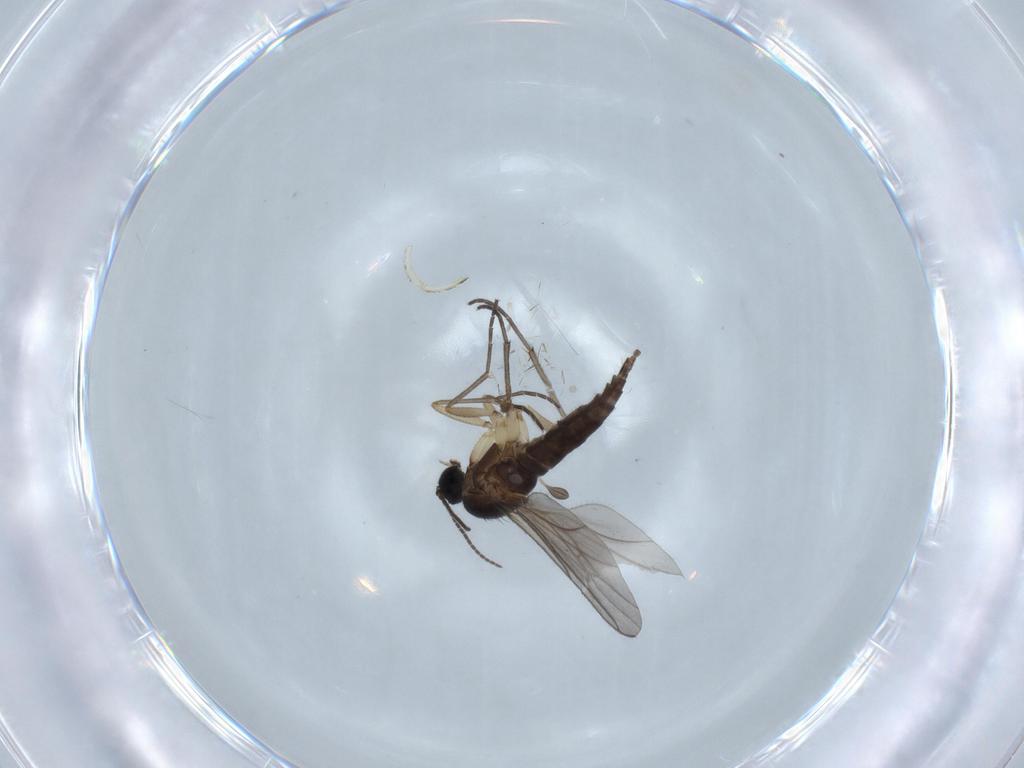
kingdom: Animalia
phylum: Arthropoda
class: Insecta
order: Diptera
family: Sciaridae
